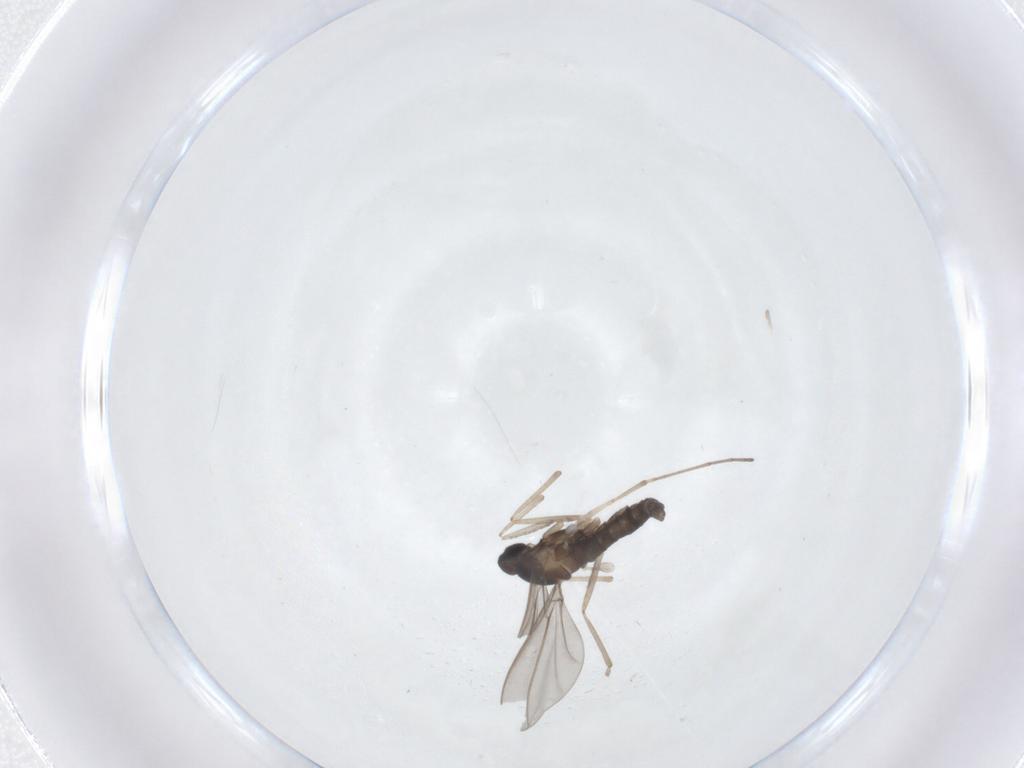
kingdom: Animalia
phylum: Arthropoda
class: Insecta
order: Diptera
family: Cecidomyiidae
